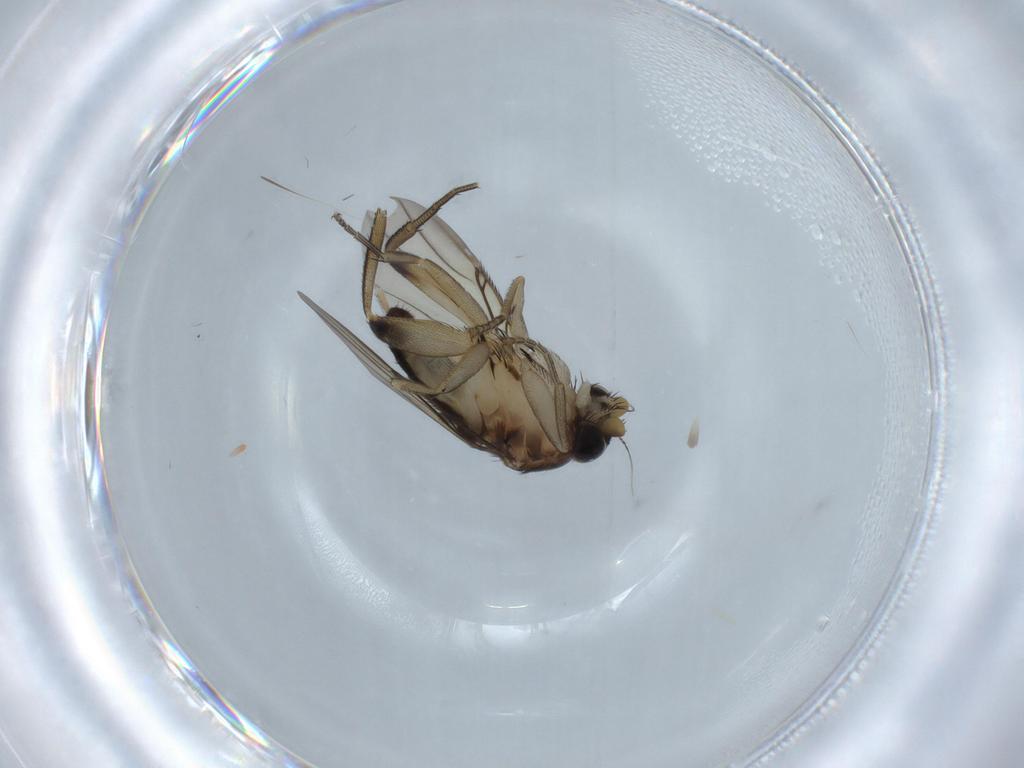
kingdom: Animalia
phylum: Arthropoda
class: Insecta
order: Diptera
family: Phoridae
